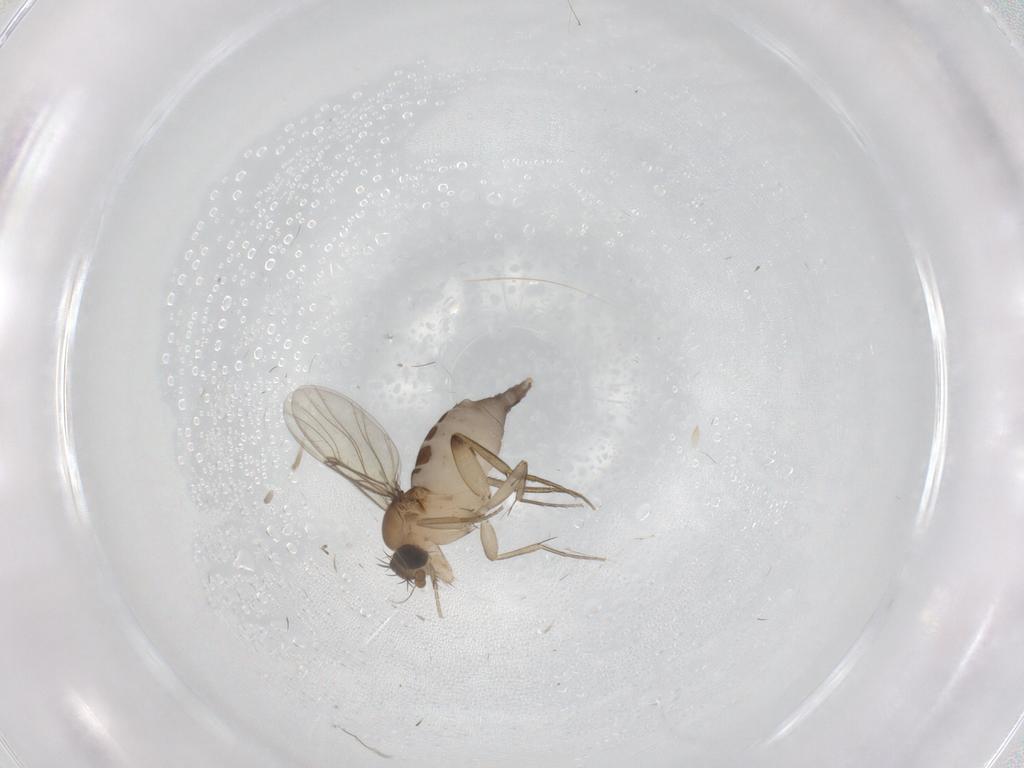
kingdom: Animalia
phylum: Arthropoda
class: Insecta
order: Diptera
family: Phoridae
